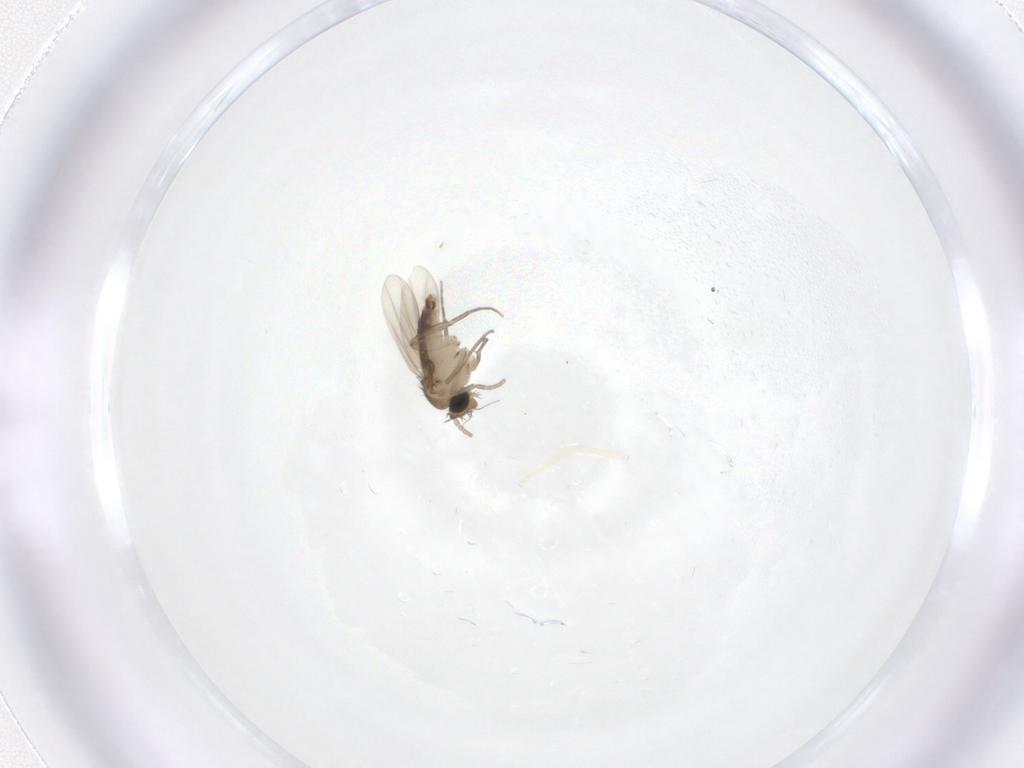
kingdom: Animalia
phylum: Arthropoda
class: Insecta
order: Diptera
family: Phoridae
